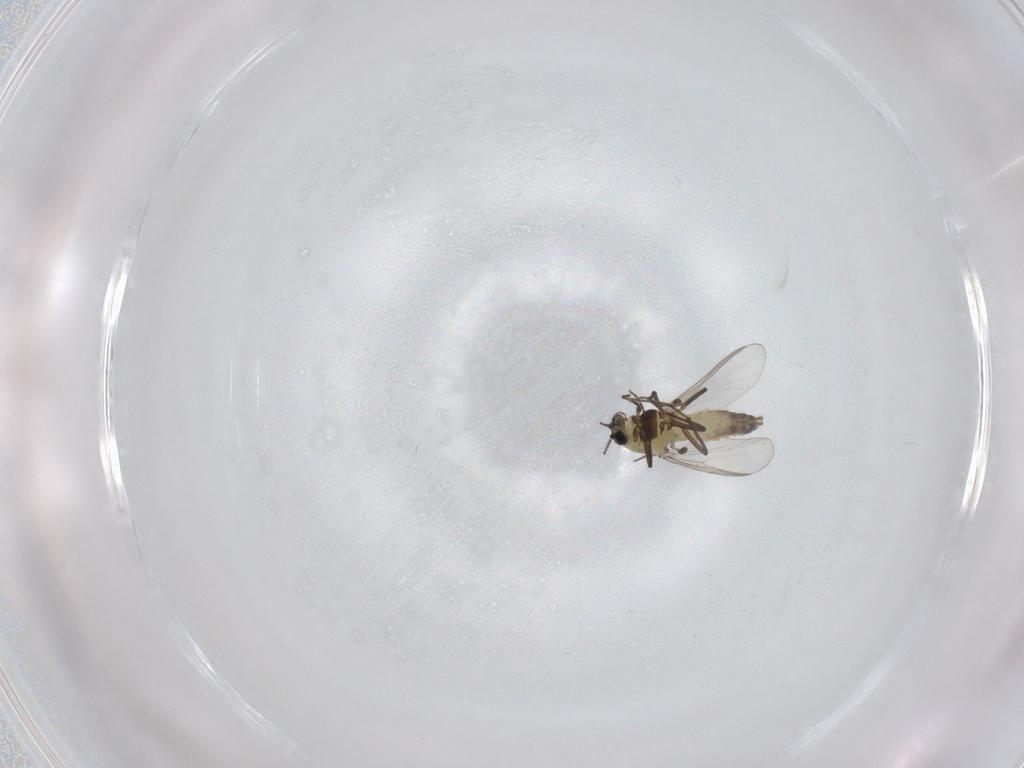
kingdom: Animalia
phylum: Arthropoda
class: Insecta
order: Diptera
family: Chironomidae
